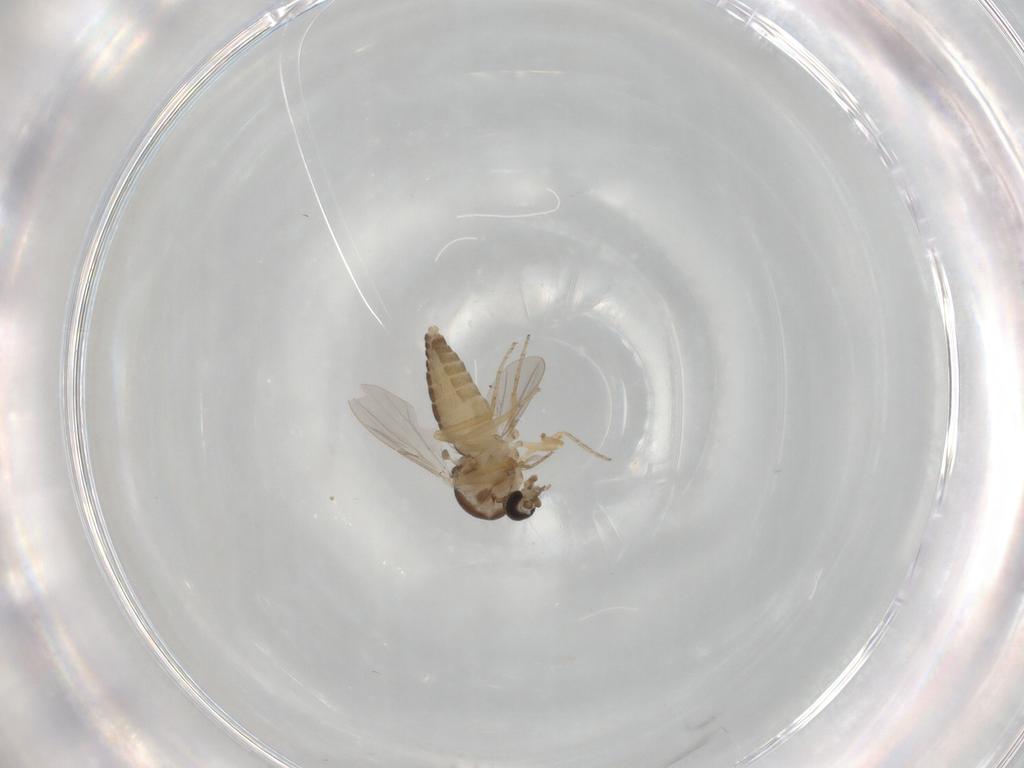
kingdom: Animalia
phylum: Arthropoda
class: Insecta
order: Diptera
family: Ceratopogonidae
